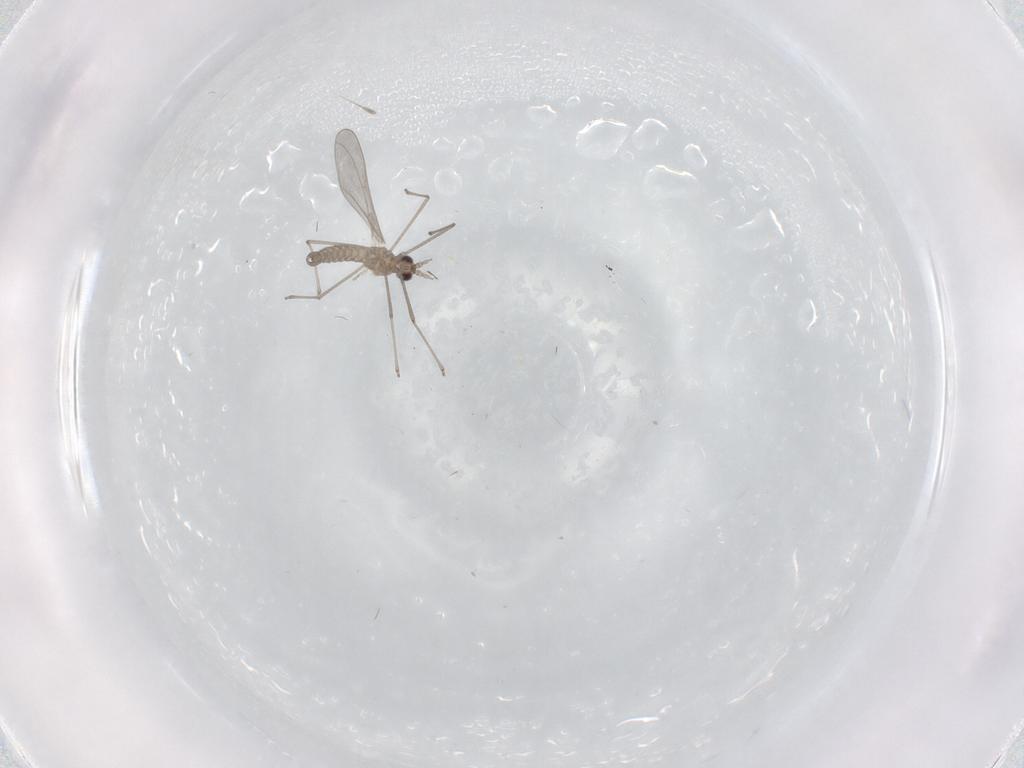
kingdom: Animalia
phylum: Arthropoda
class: Insecta
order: Diptera
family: Cecidomyiidae
